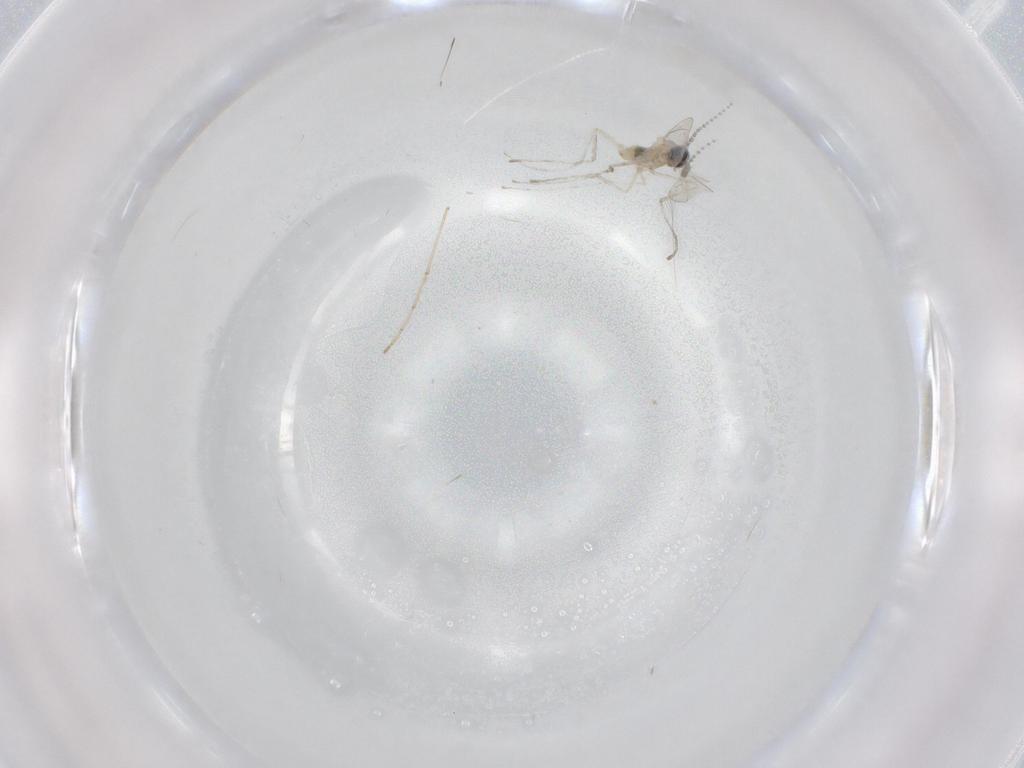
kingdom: Animalia
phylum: Arthropoda
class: Insecta
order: Diptera
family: Cecidomyiidae
